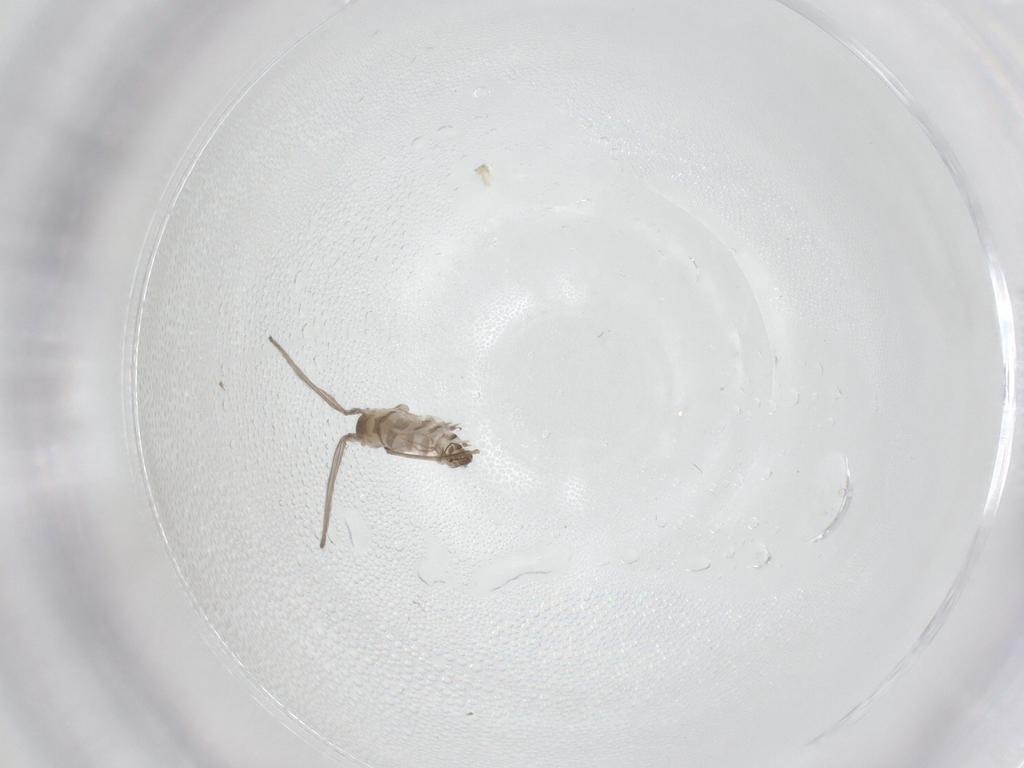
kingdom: Animalia
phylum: Arthropoda
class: Insecta
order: Diptera
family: Psychodidae
